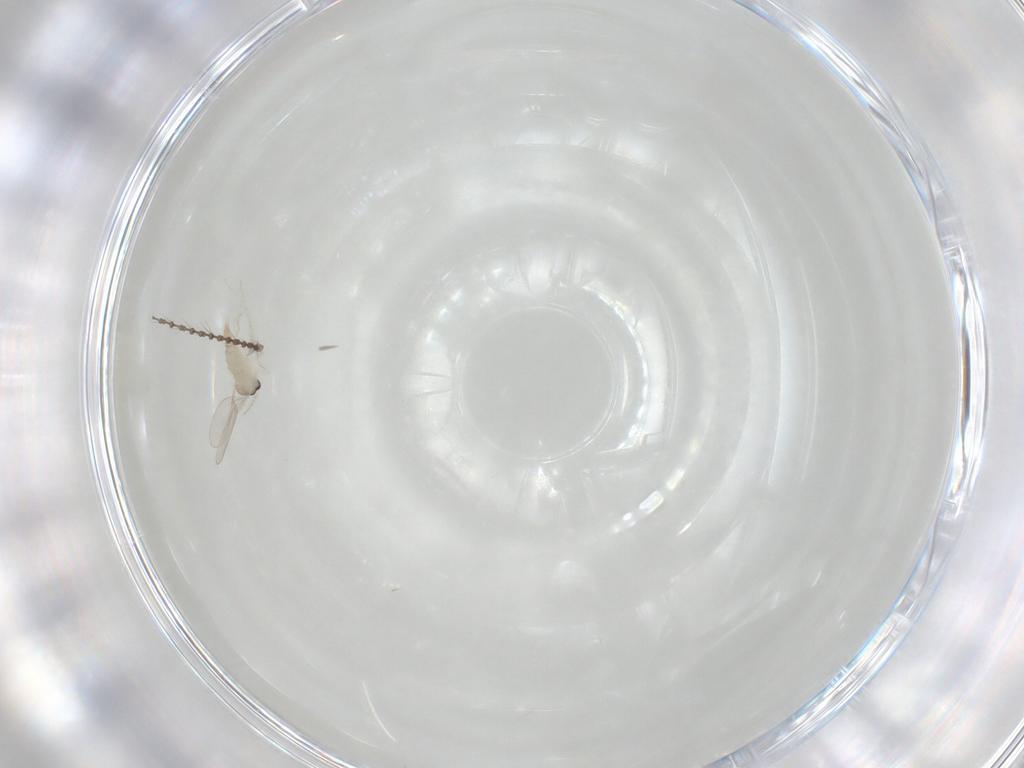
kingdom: Animalia
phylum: Arthropoda
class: Insecta
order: Diptera
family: Cecidomyiidae
